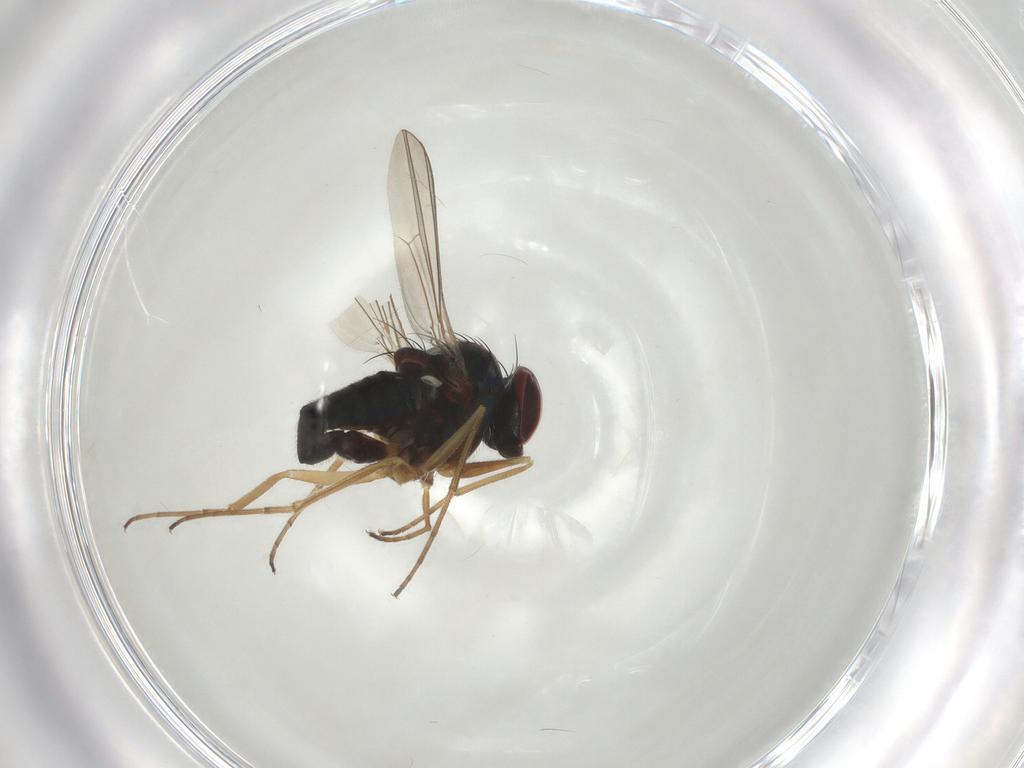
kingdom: Animalia
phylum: Arthropoda
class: Insecta
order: Diptera
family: Dolichopodidae
